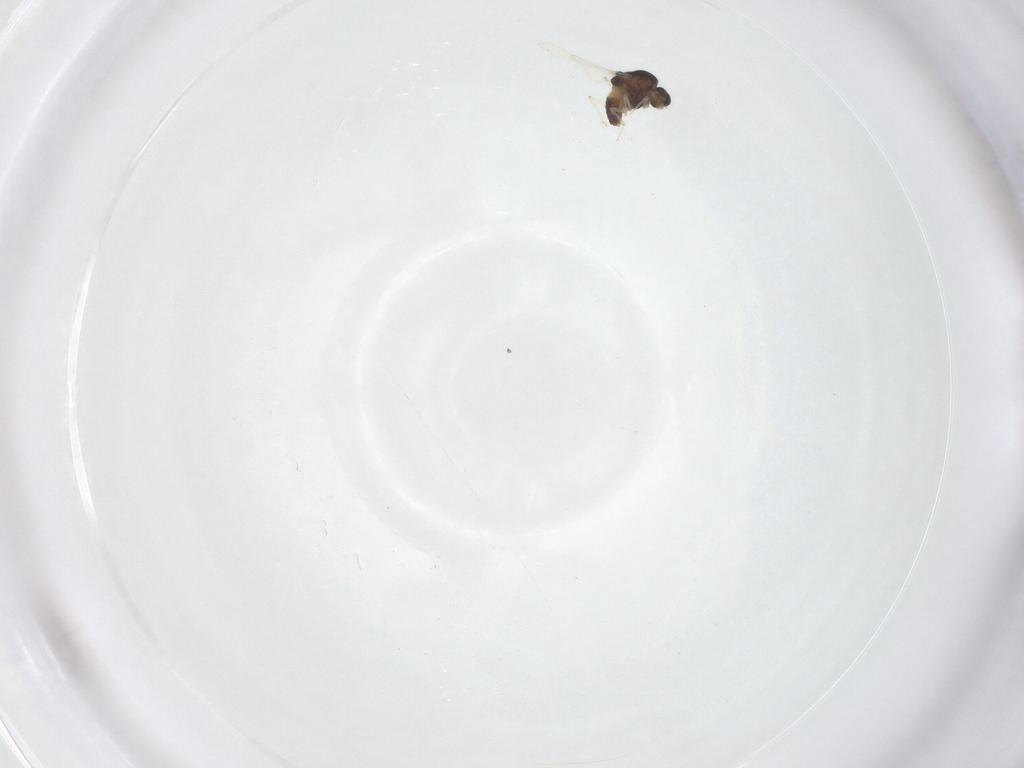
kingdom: Animalia
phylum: Arthropoda
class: Insecta
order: Diptera
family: Chironomidae
